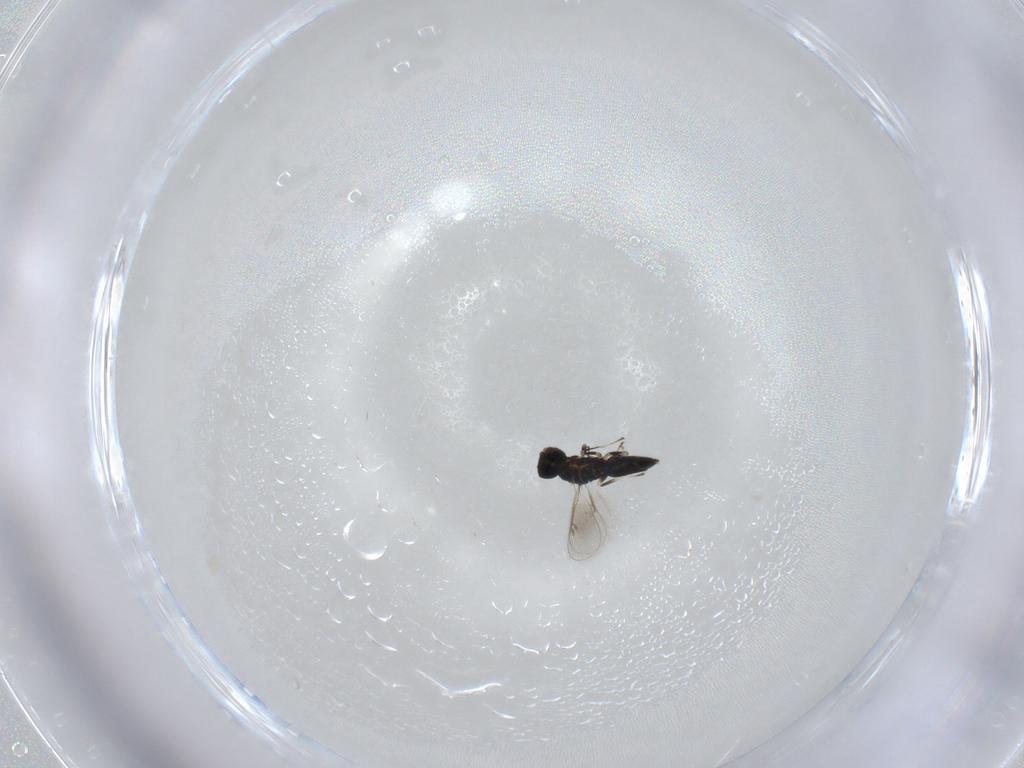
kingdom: Animalia
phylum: Arthropoda
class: Insecta
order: Hymenoptera
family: Eulophidae
